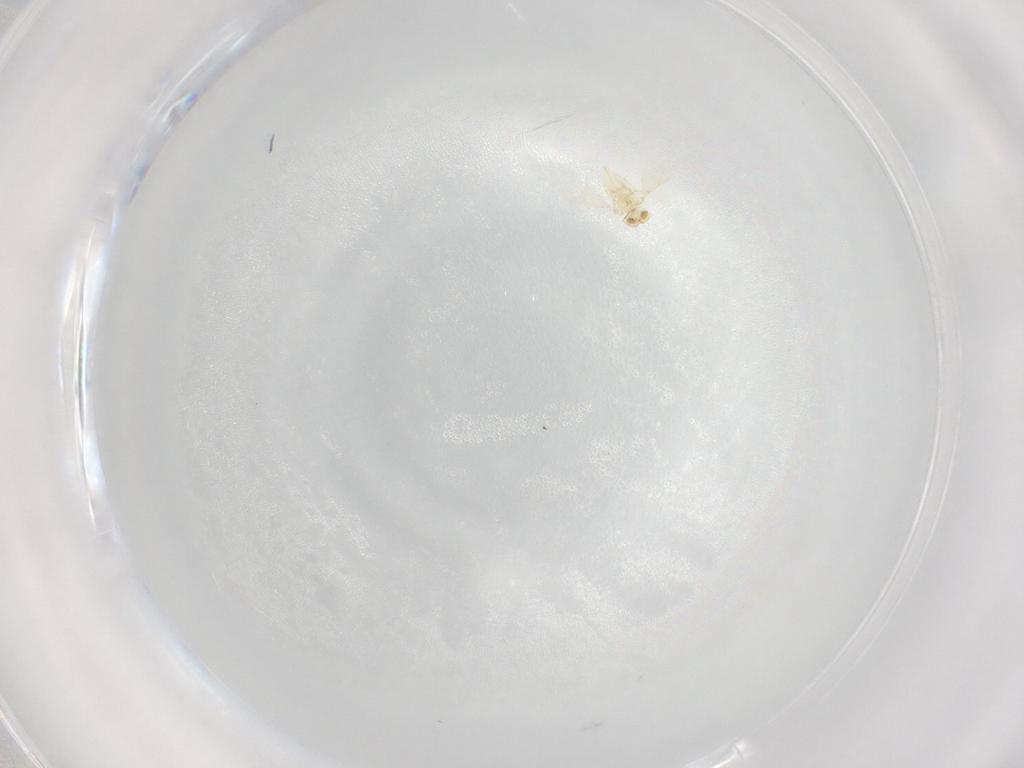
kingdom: Animalia
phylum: Arthropoda
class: Insecta
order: Hymenoptera
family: Aphelinidae
